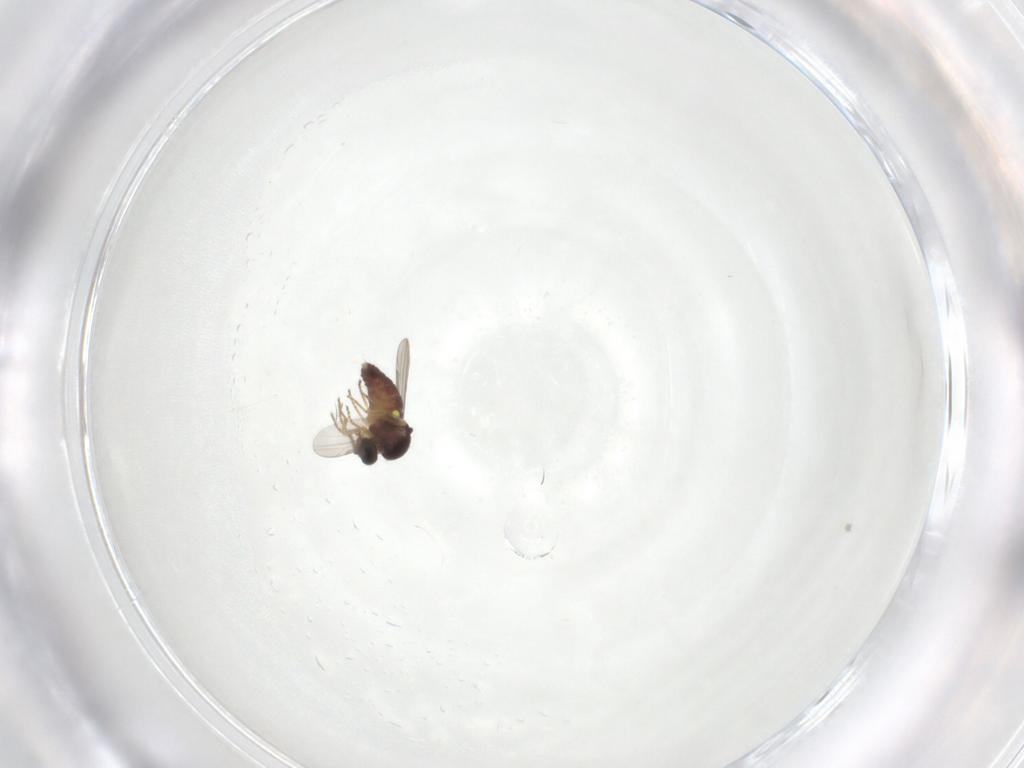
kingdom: Animalia
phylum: Arthropoda
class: Insecta
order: Diptera
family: Ceratopogonidae
